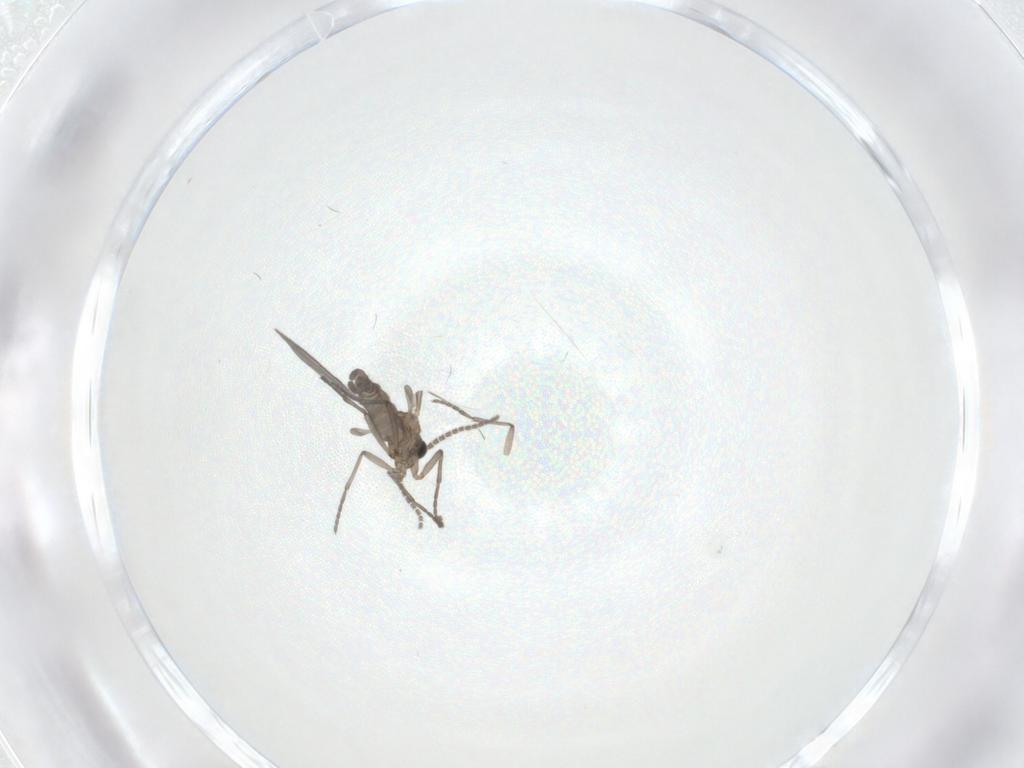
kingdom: Animalia
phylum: Arthropoda
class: Insecta
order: Diptera
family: Sciaridae
